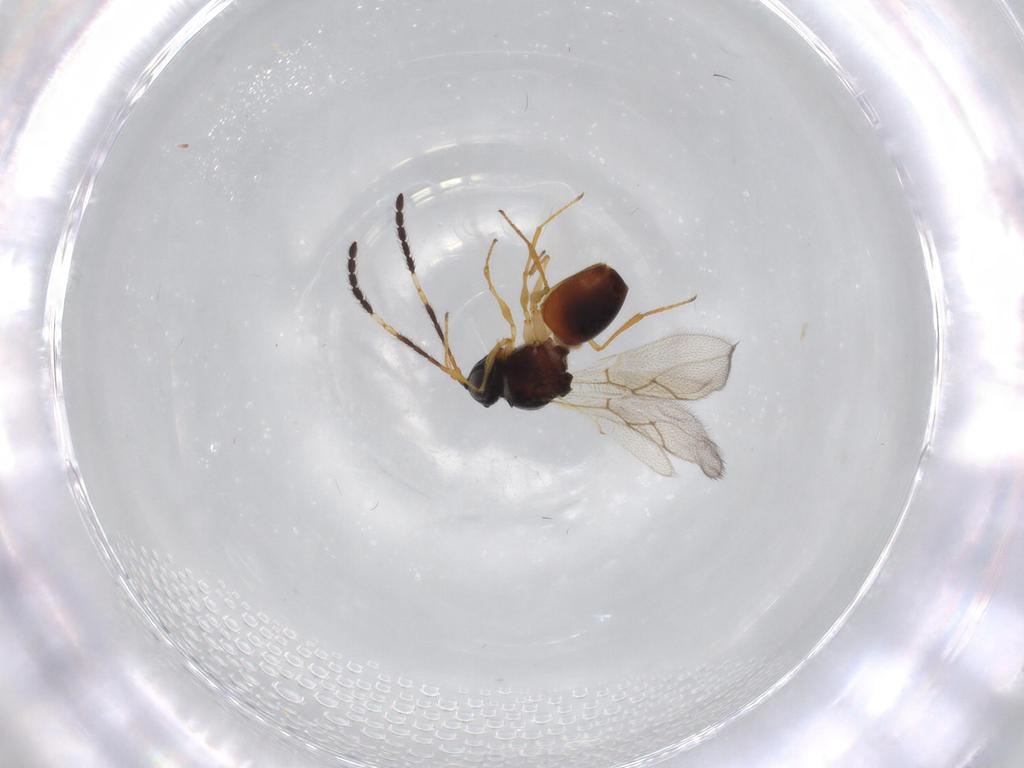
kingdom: Animalia
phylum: Arthropoda
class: Insecta
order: Hymenoptera
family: Figitidae
